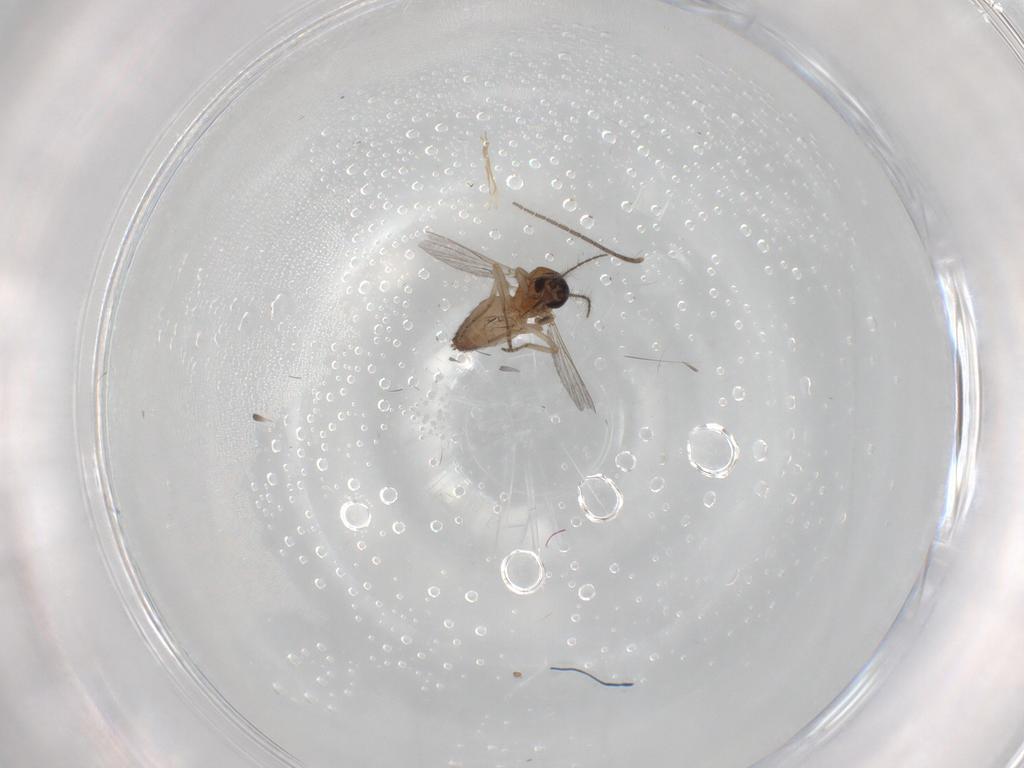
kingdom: Animalia
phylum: Arthropoda
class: Insecta
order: Diptera
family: Ceratopogonidae
